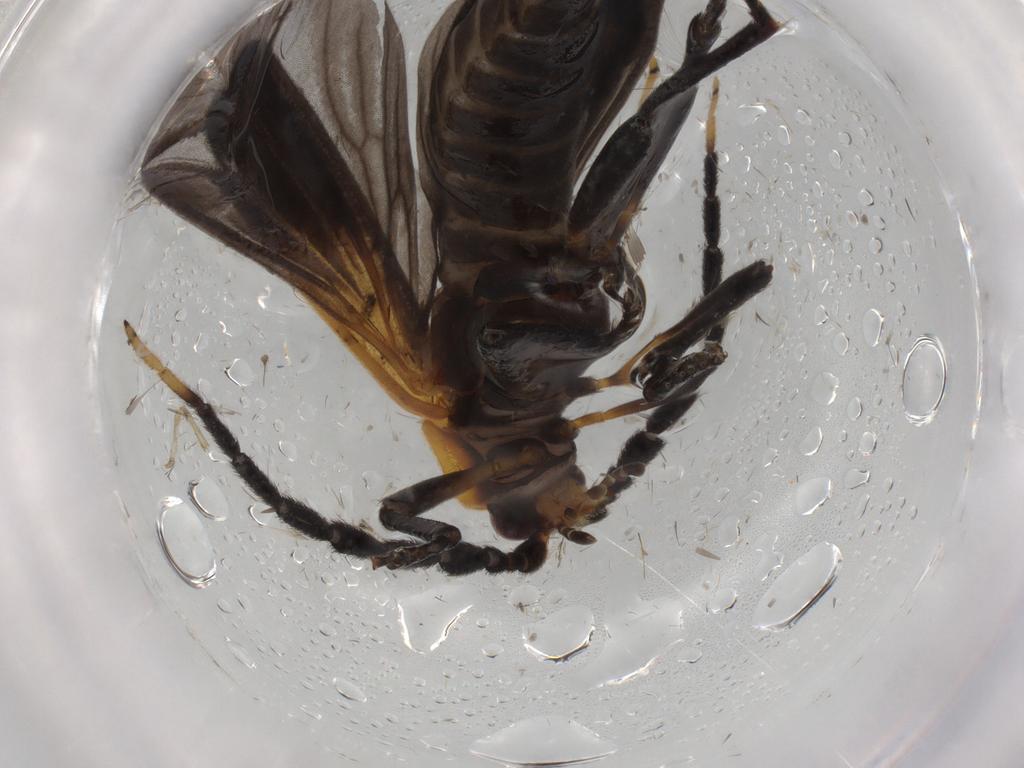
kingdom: Animalia
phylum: Arthropoda
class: Insecta
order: Coleoptera
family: Lycidae
